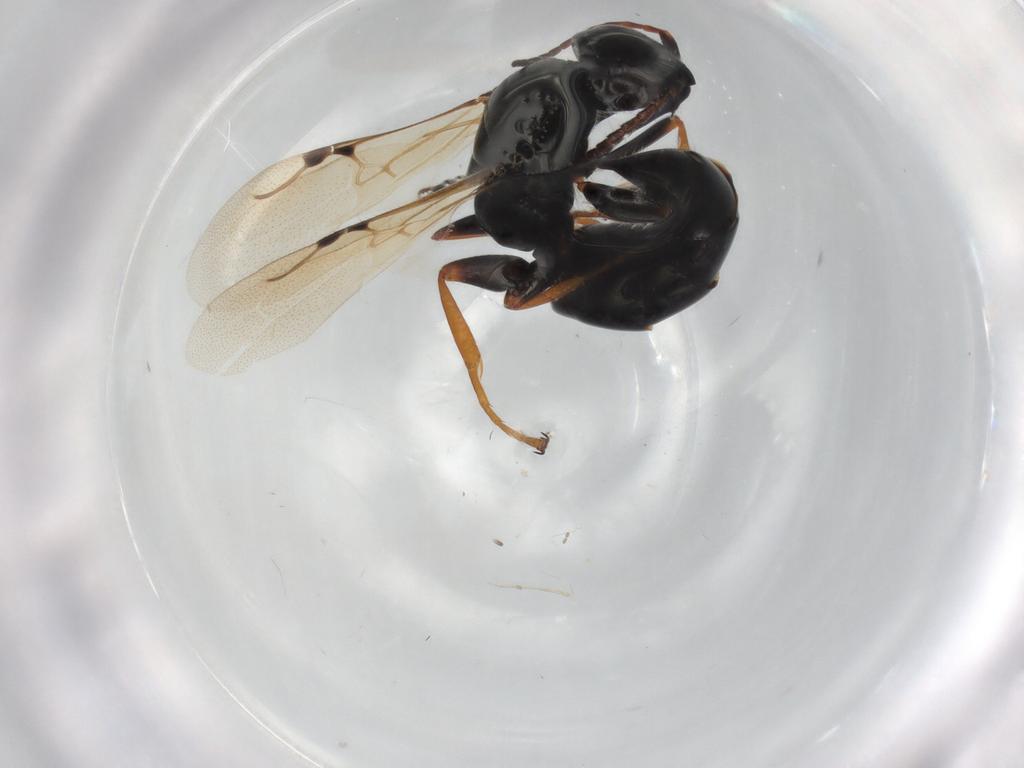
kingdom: Animalia
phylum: Arthropoda
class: Insecta
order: Hymenoptera
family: Bethylidae
